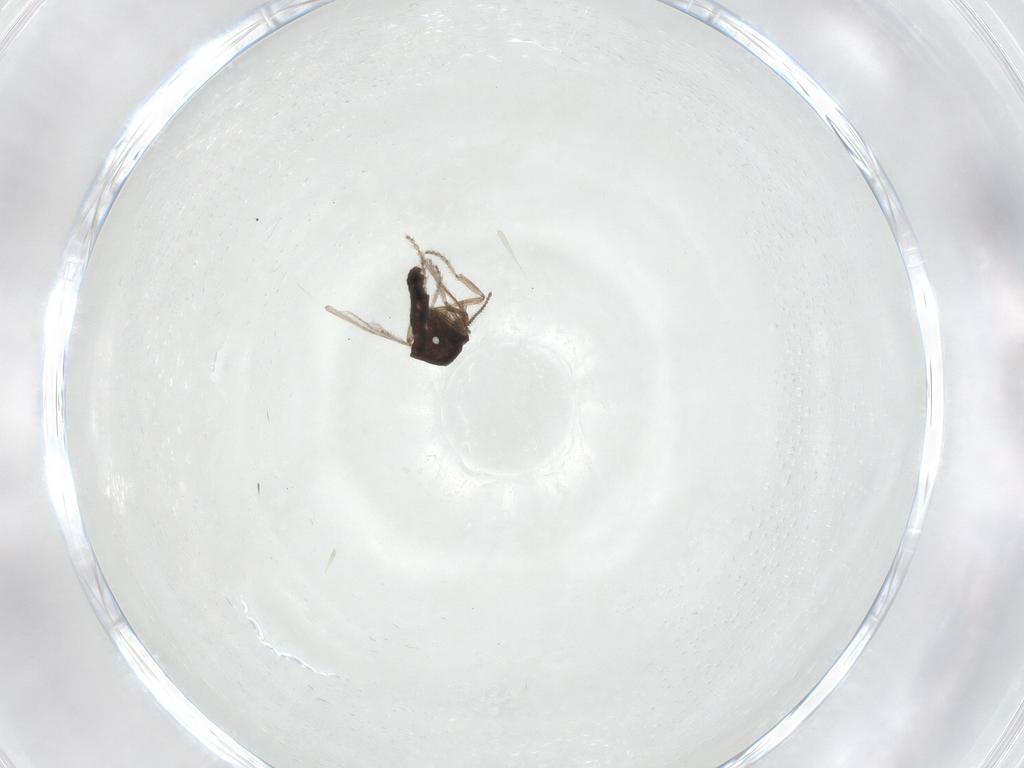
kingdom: Animalia
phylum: Arthropoda
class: Insecta
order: Diptera
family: Ceratopogonidae
